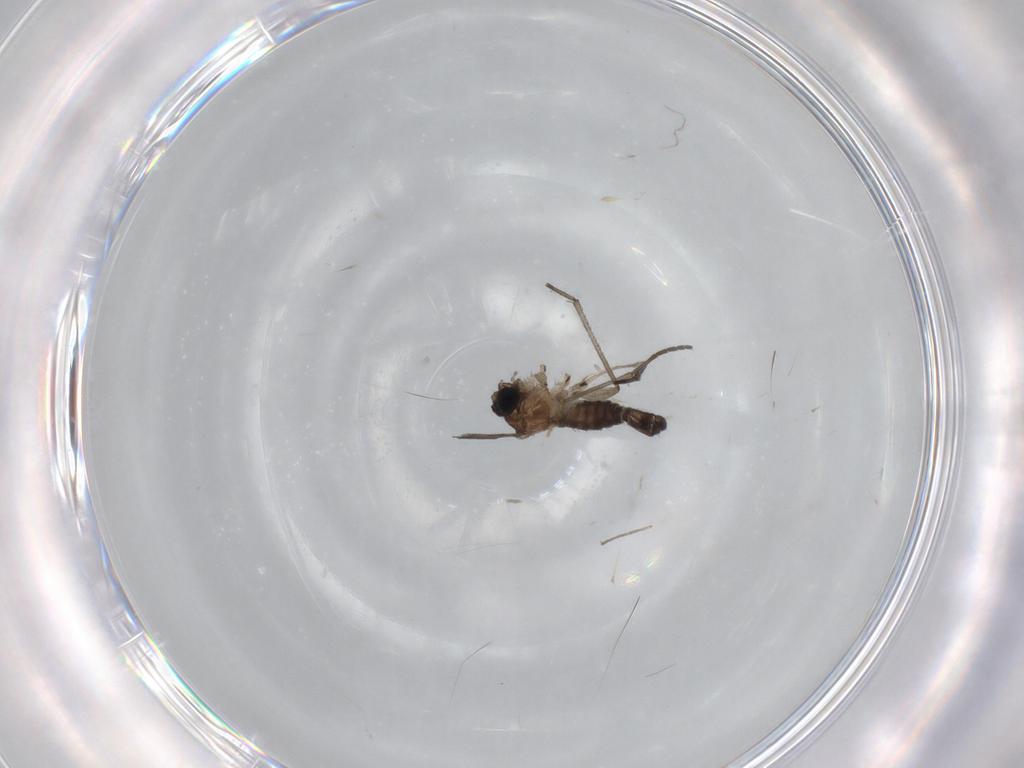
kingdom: Animalia
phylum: Arthropoda
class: Insecta
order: Diptera
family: Sciaridae
